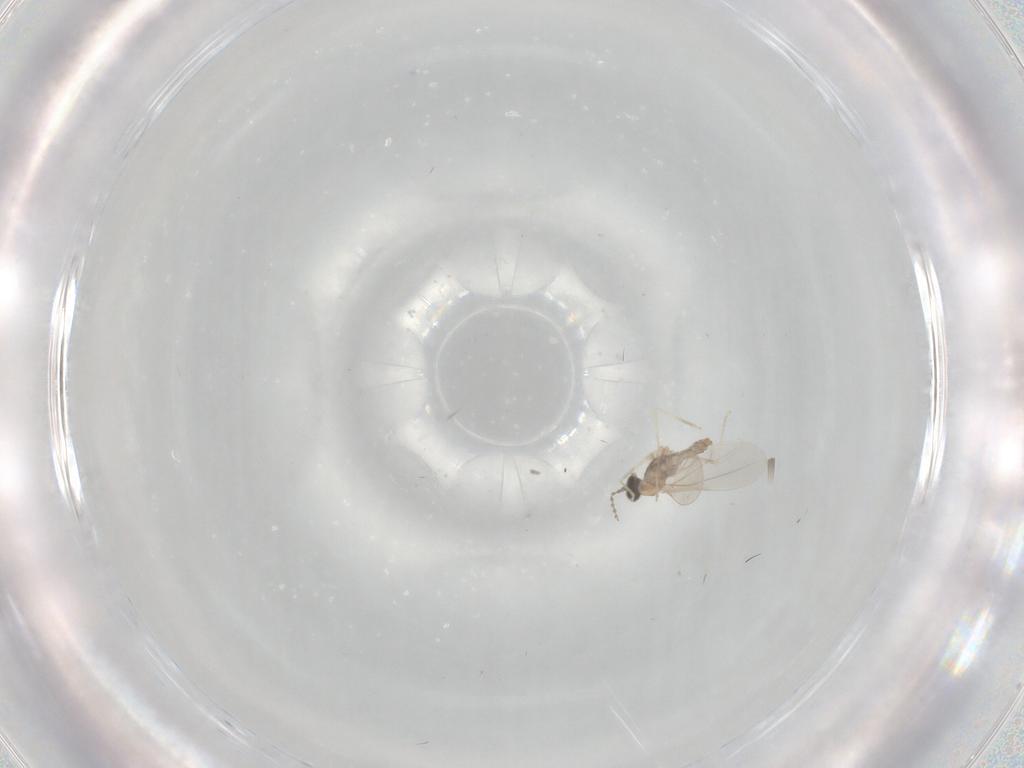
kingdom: Animalia
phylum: Arthropoda
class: Insecta
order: Diptera
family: Cecidomyiidae
